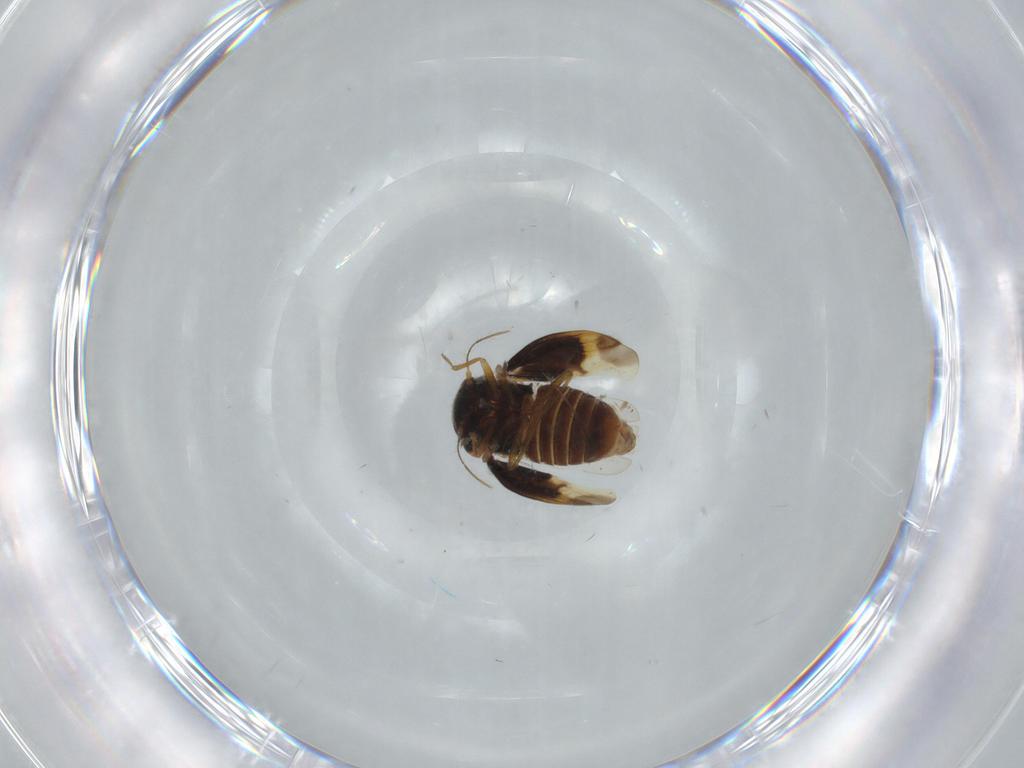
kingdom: Animalia
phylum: Arthropoda
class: Insecta
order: Hemiptera
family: Schizopteridae
